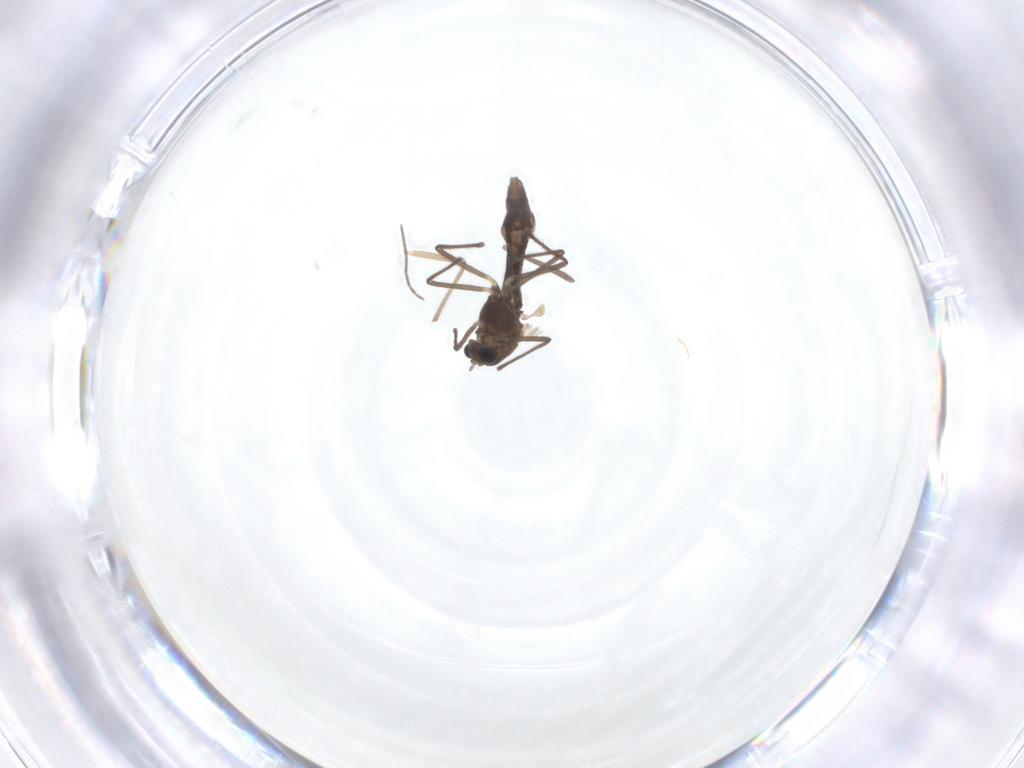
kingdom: Animalia
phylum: Arthropoda
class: Insecta
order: Diptera
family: Chironomidae
